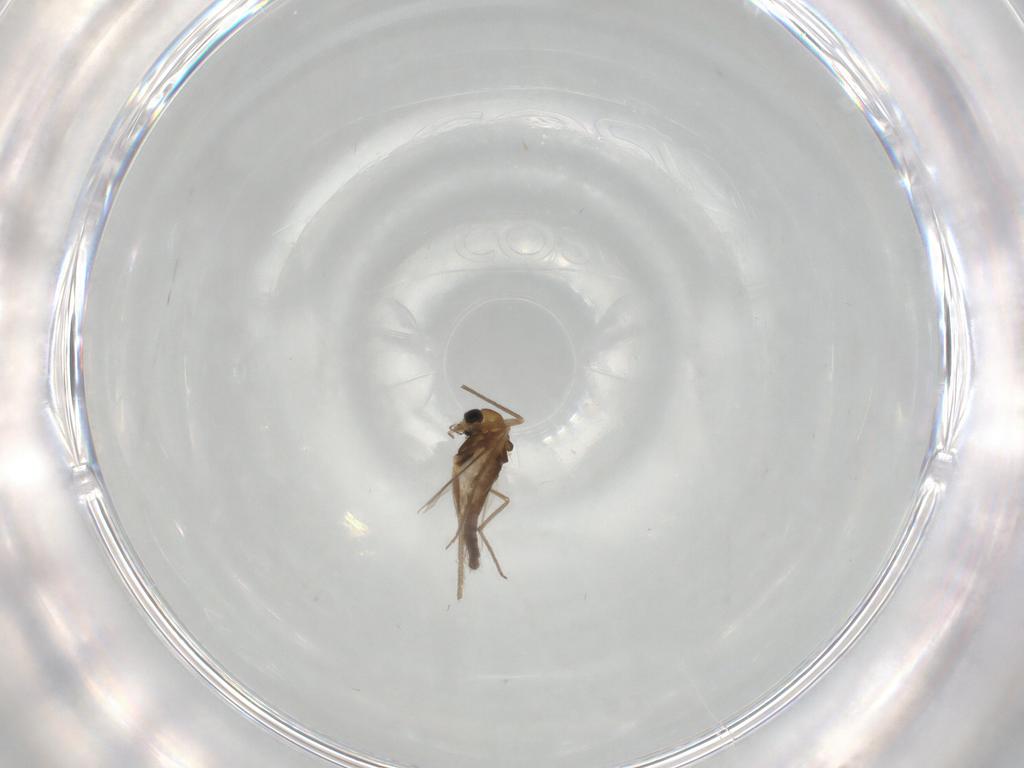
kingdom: Animalia
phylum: Arthropoda
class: Insecta
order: Diptera
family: Chironomidae
